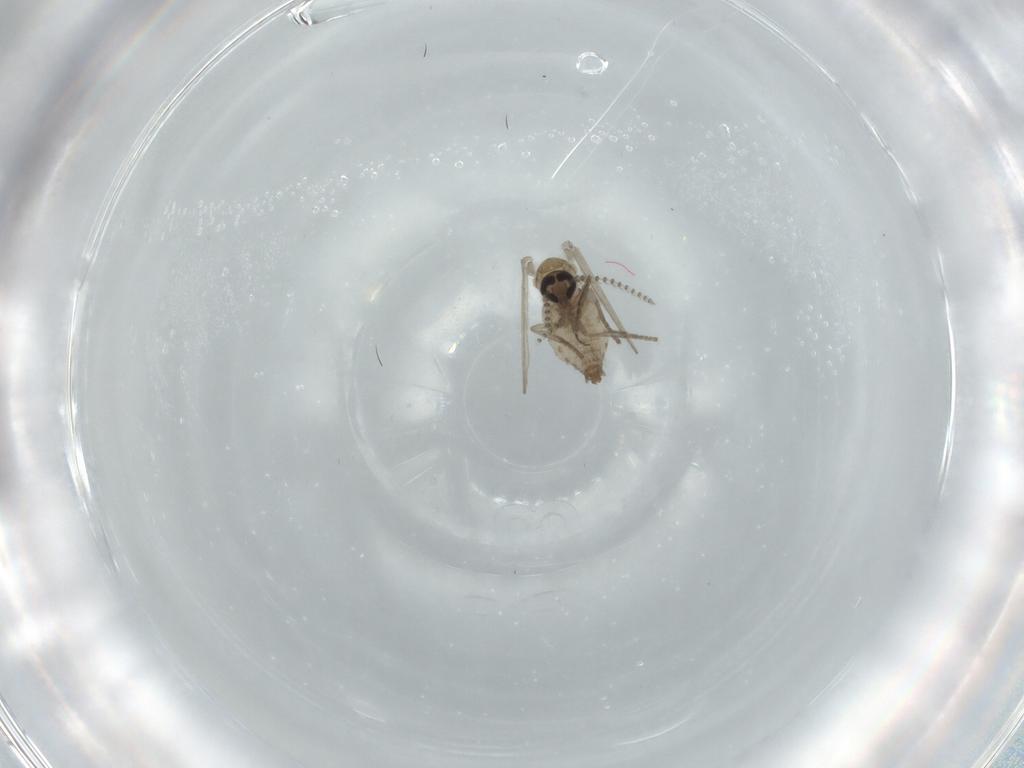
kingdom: Animalia
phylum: Arthropoda
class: Insecta
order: Diptera
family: Psychodidae
